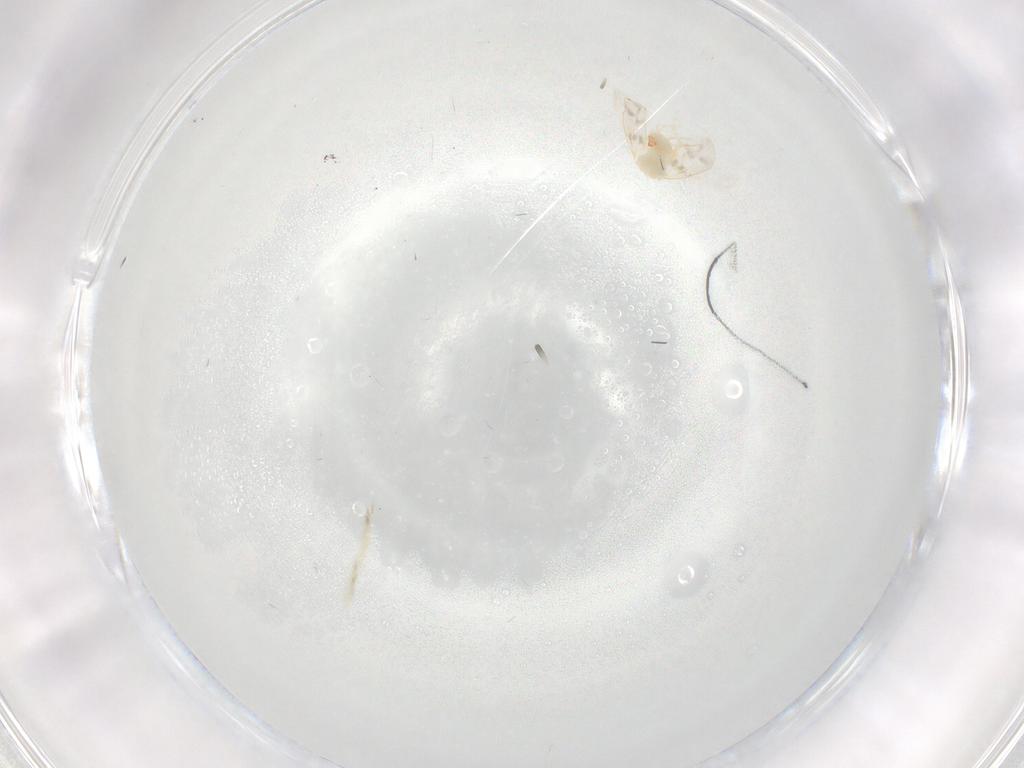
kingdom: Animalia
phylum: Arthropoda
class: Insecta
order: Hemiptera
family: Aleyrodidae
